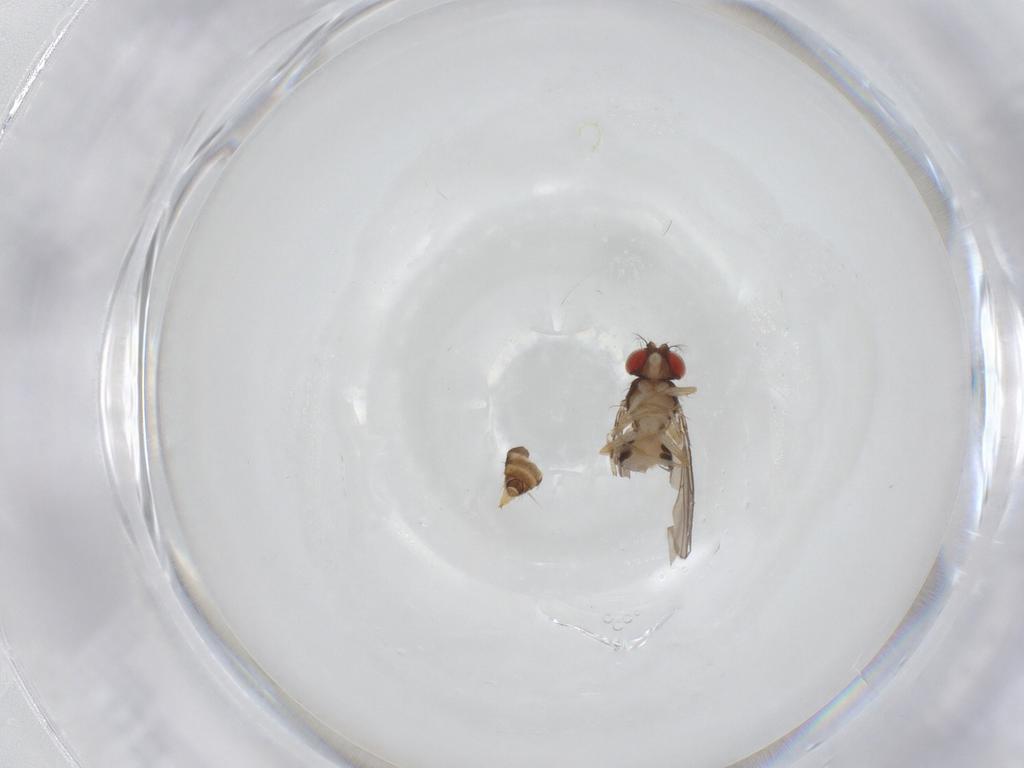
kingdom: Animalia
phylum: Arthropoda
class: Insecta
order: Diptera
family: Drosophilidae
